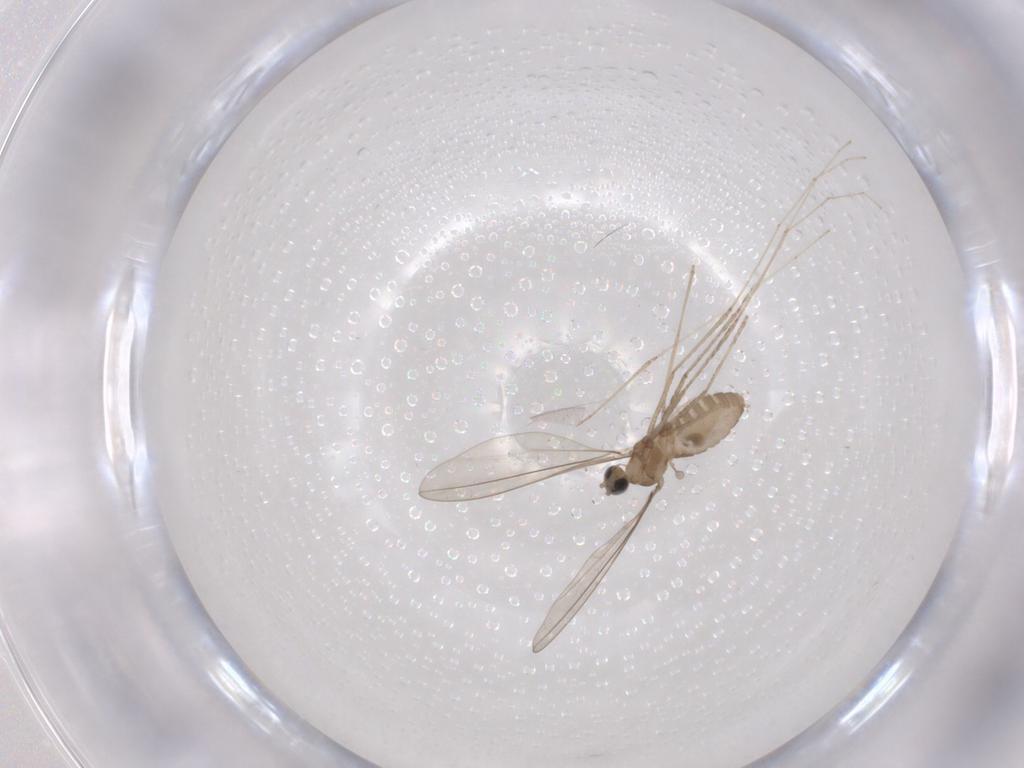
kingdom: Animalia
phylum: Arthropoda
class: Insecta
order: Diptera
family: Cecidomyiidae
